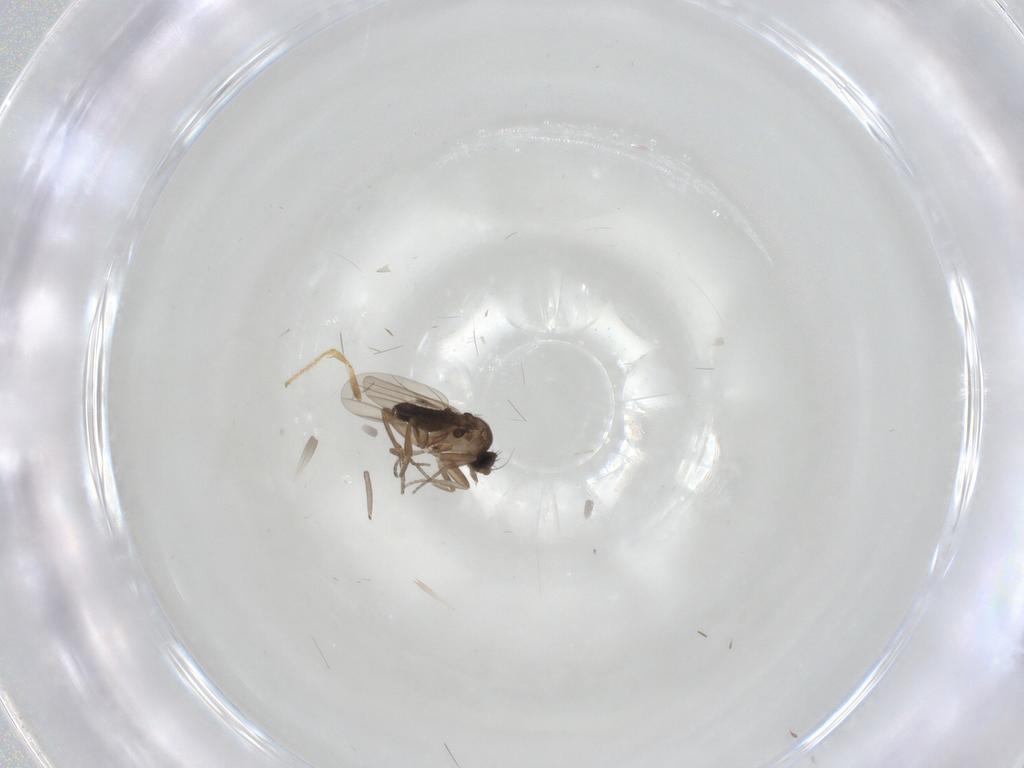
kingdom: Animalia
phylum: Arthropoda
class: Insecta
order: Diptera
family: Phoridae
